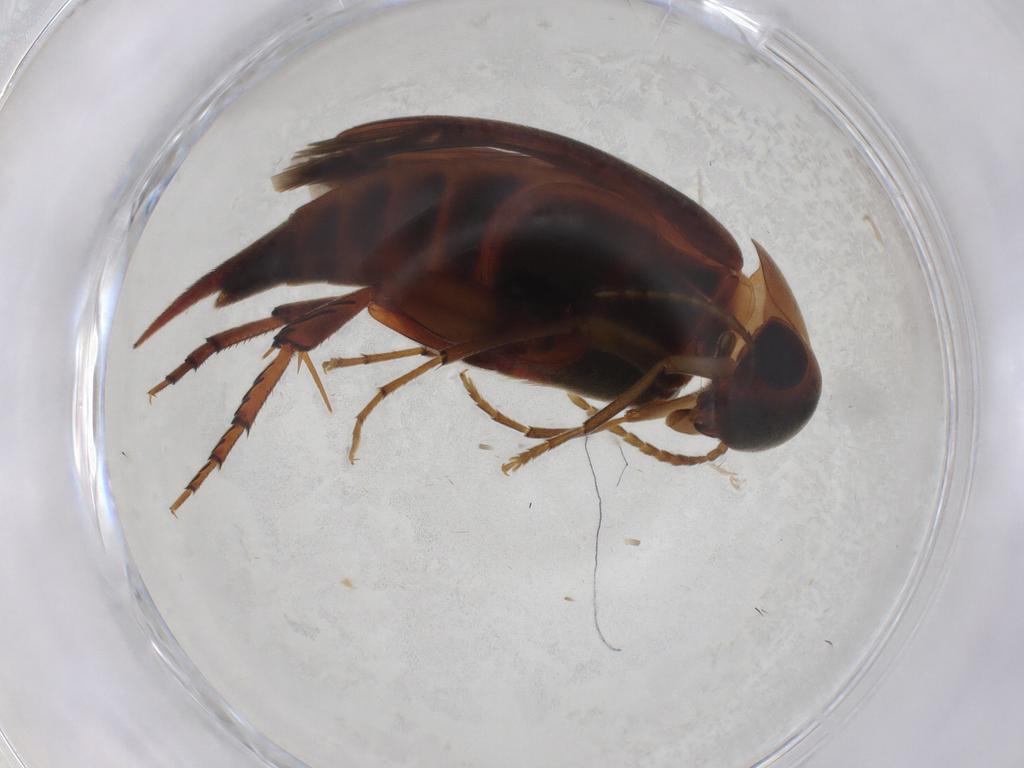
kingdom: Animalia
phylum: Arthropoda
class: Insecta
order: Coleoptera
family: Mordellidae
